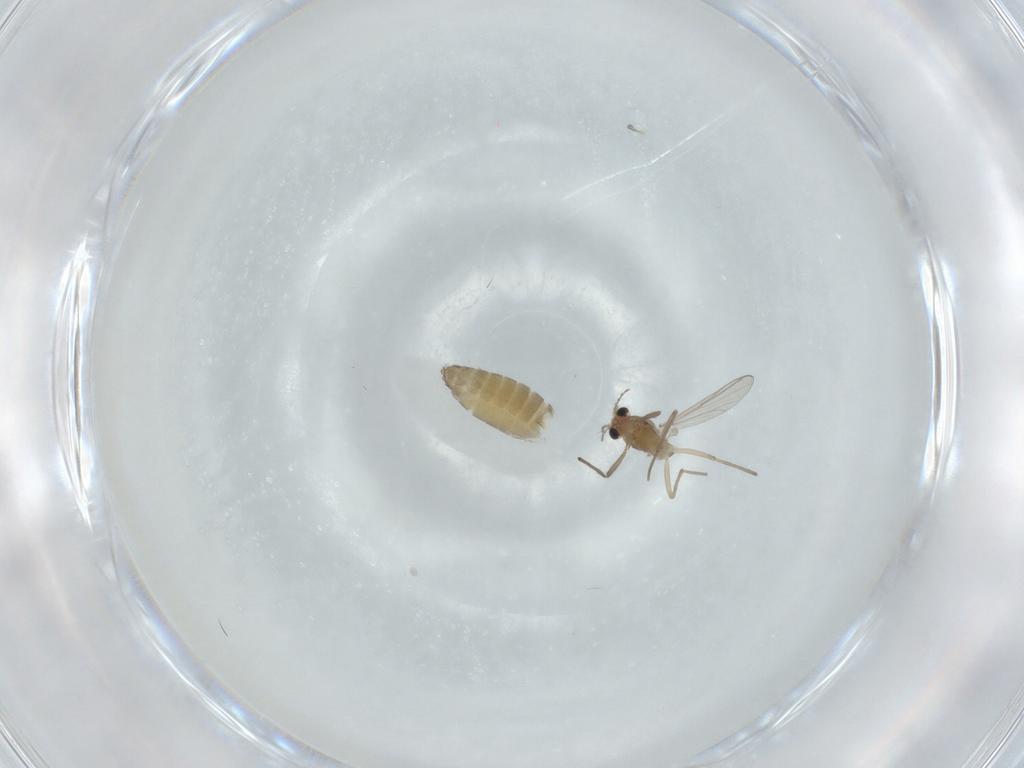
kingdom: Animalia
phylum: Arthropoda
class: Insecta
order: Diptera
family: Chironomidae
